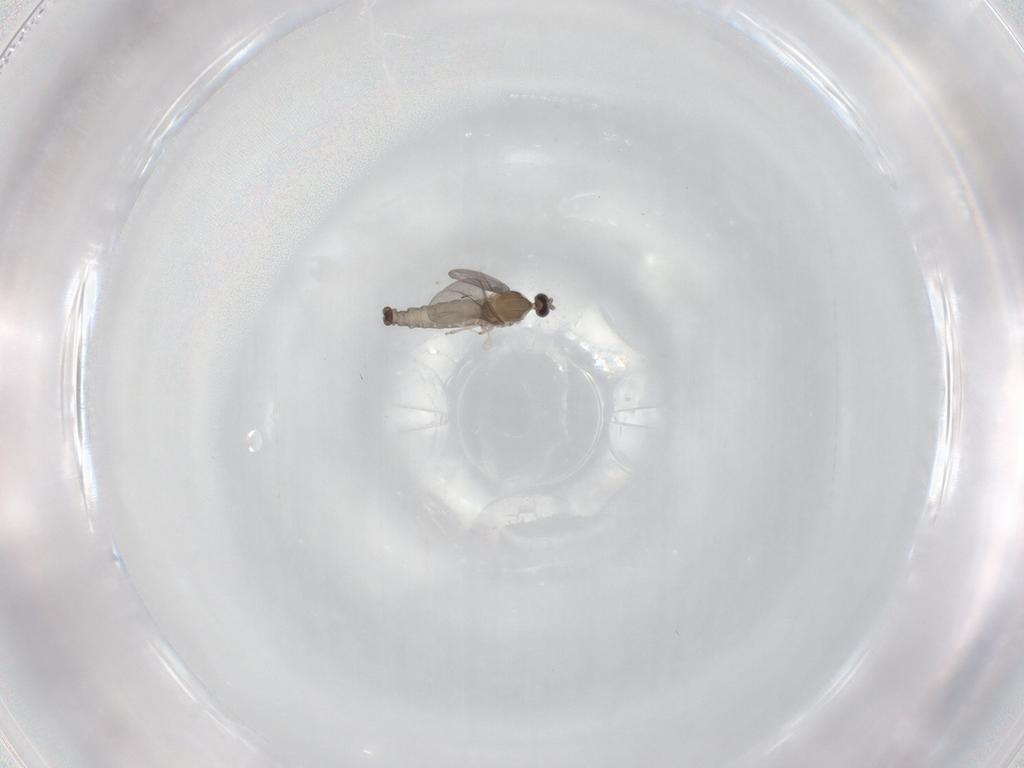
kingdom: Animalia
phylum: Arthropoda
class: Insecta
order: Diptera
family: Cecidomyiidae
